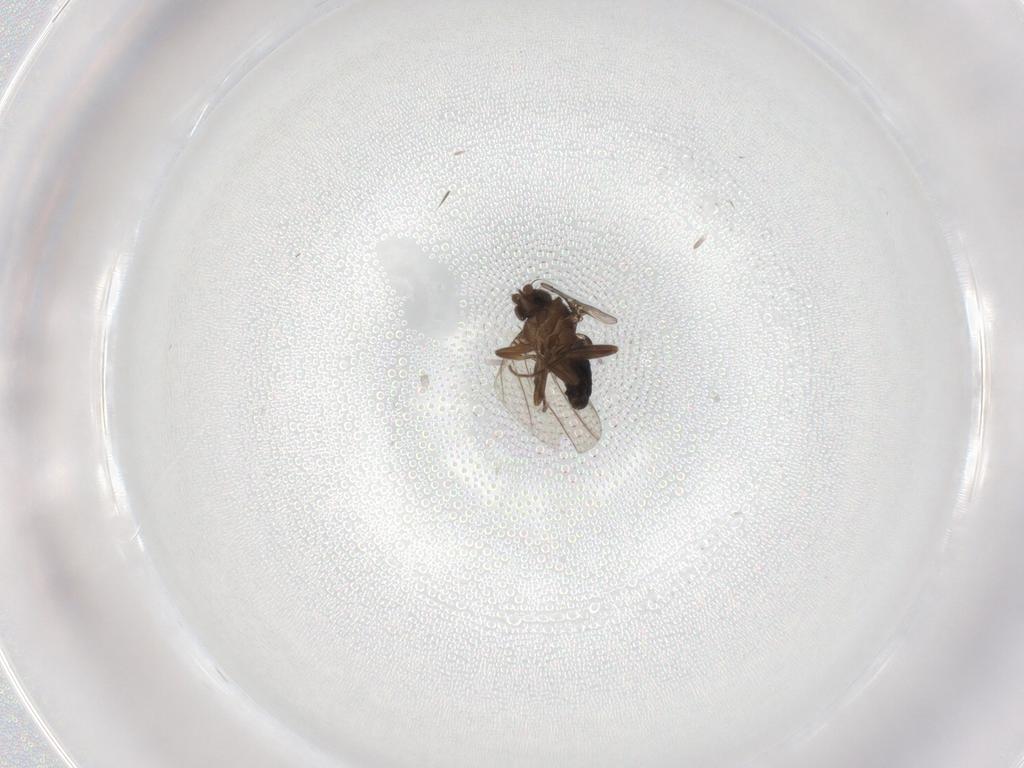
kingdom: Animalia
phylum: Arthropoda
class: Insecta
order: Diptera
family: Phoridae
